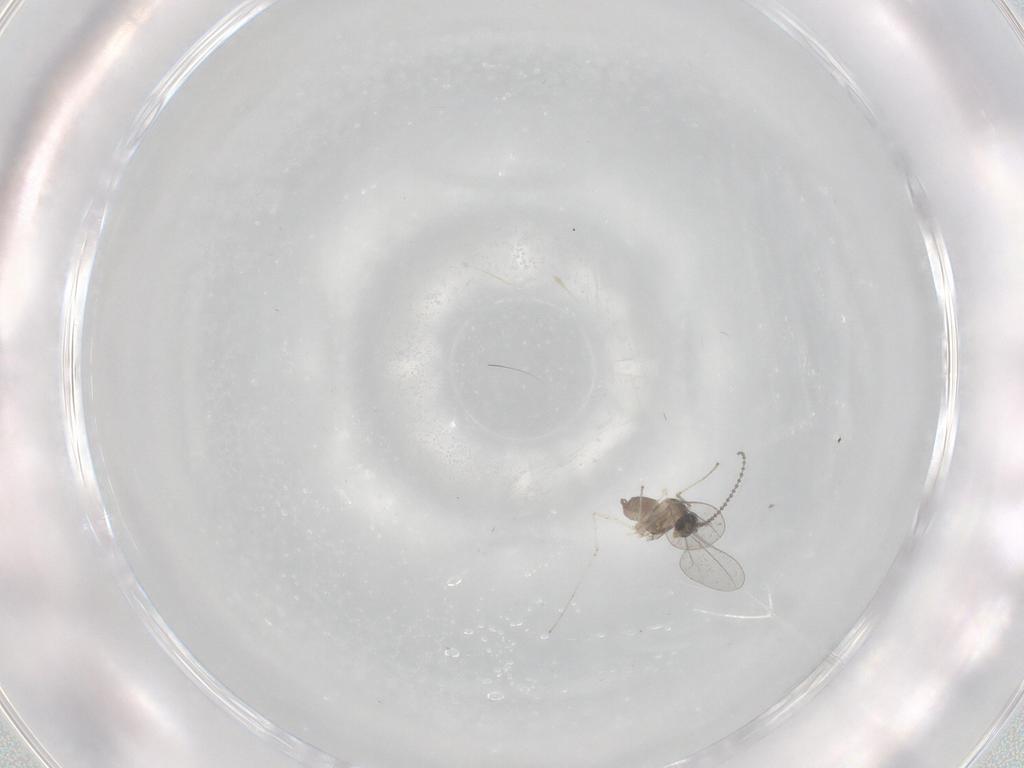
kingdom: Animalia
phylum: Arthropoda
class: Insecta
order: Diptera
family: Cecidomyiidae
